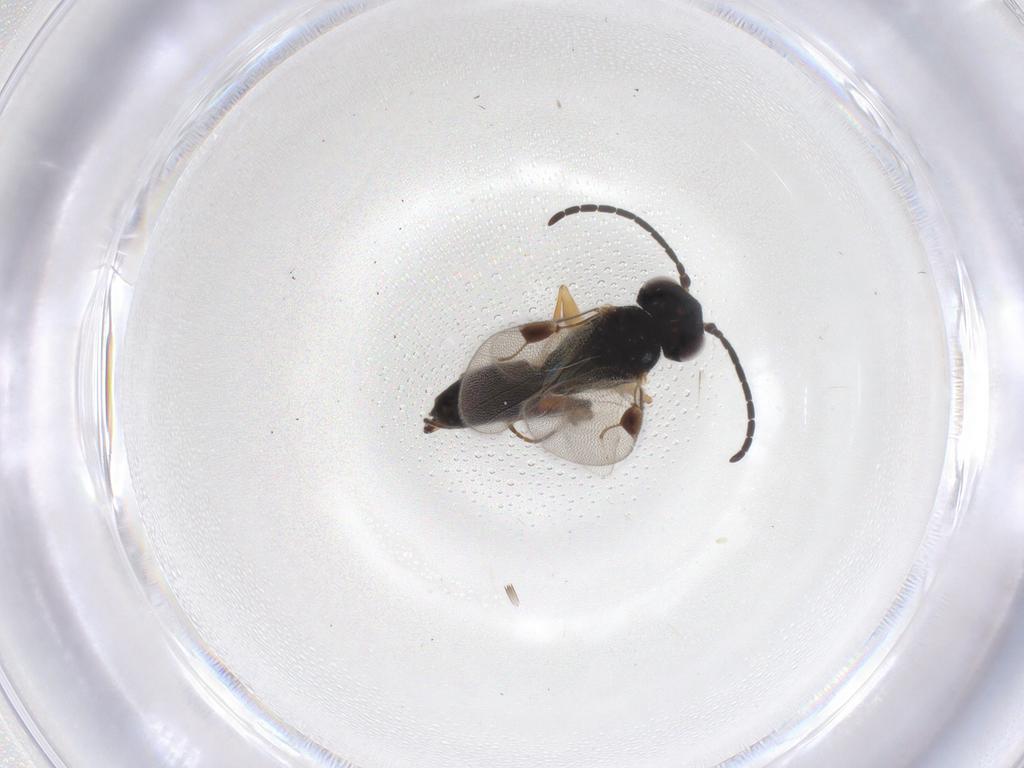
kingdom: Animalia
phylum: Arthropoda
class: Insecta
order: Hymenoptera
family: Dryinidae
